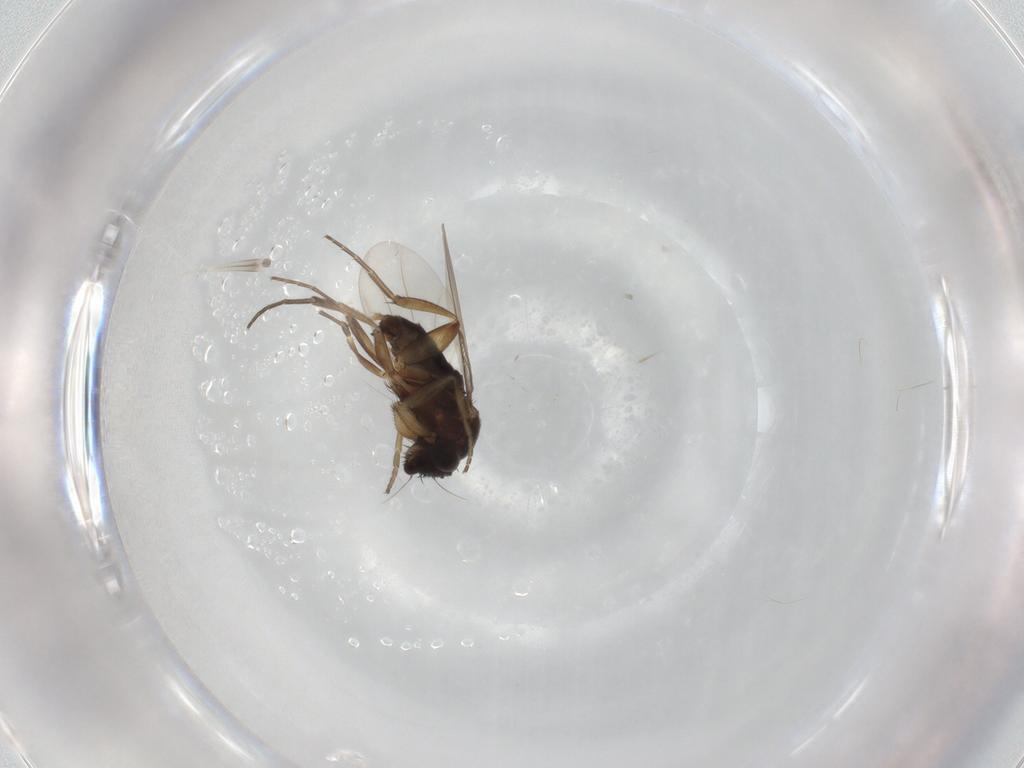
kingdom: Animalia
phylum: Arthropoda
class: Insecta
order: Diptera
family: Phoridae
